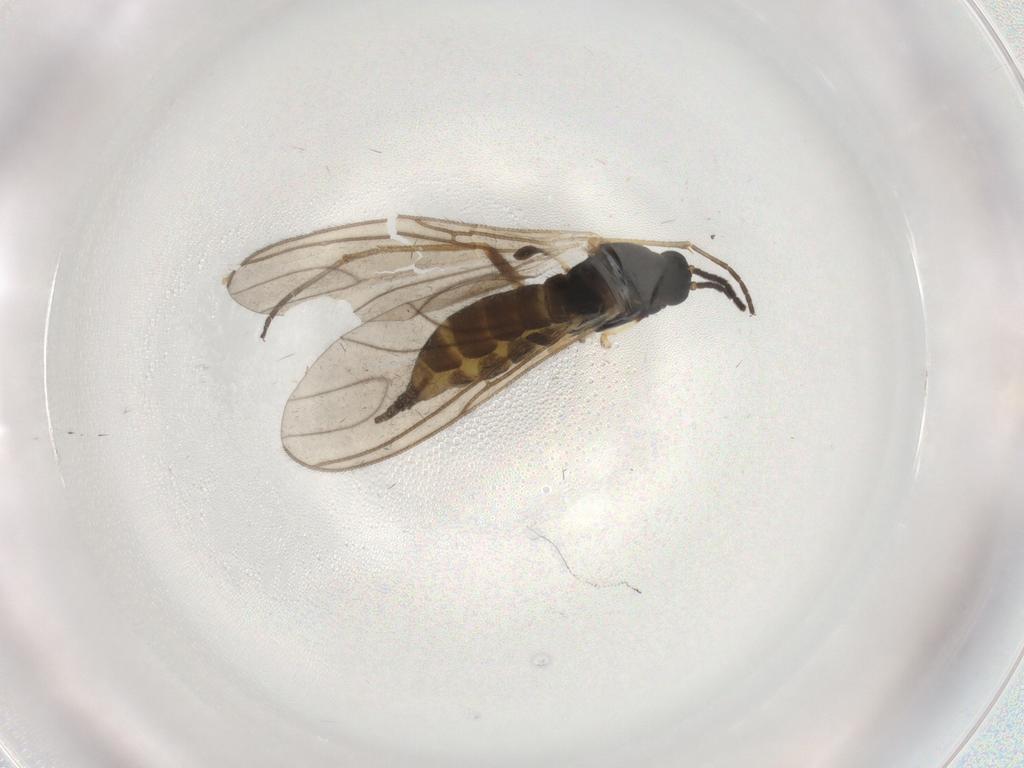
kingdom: Animalia
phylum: Arthropoda
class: Insecta
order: Diptera
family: Sciaridae
